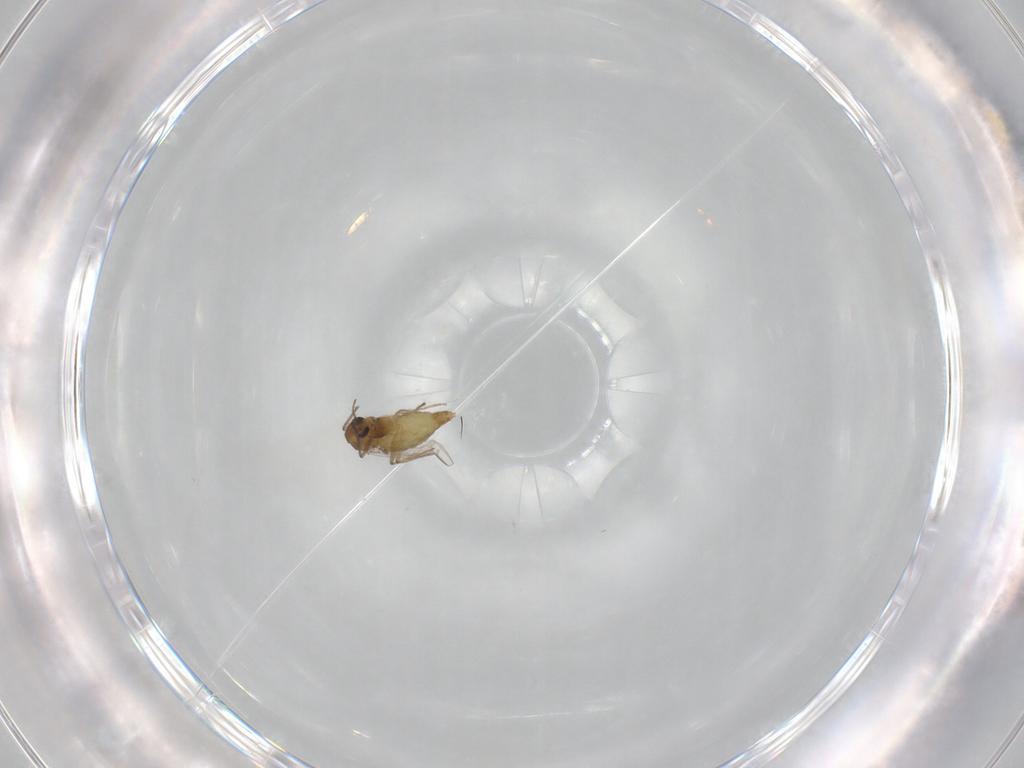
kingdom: Animalia
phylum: Arthropoda
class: Insecta
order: Diptera
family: Chironomidae
